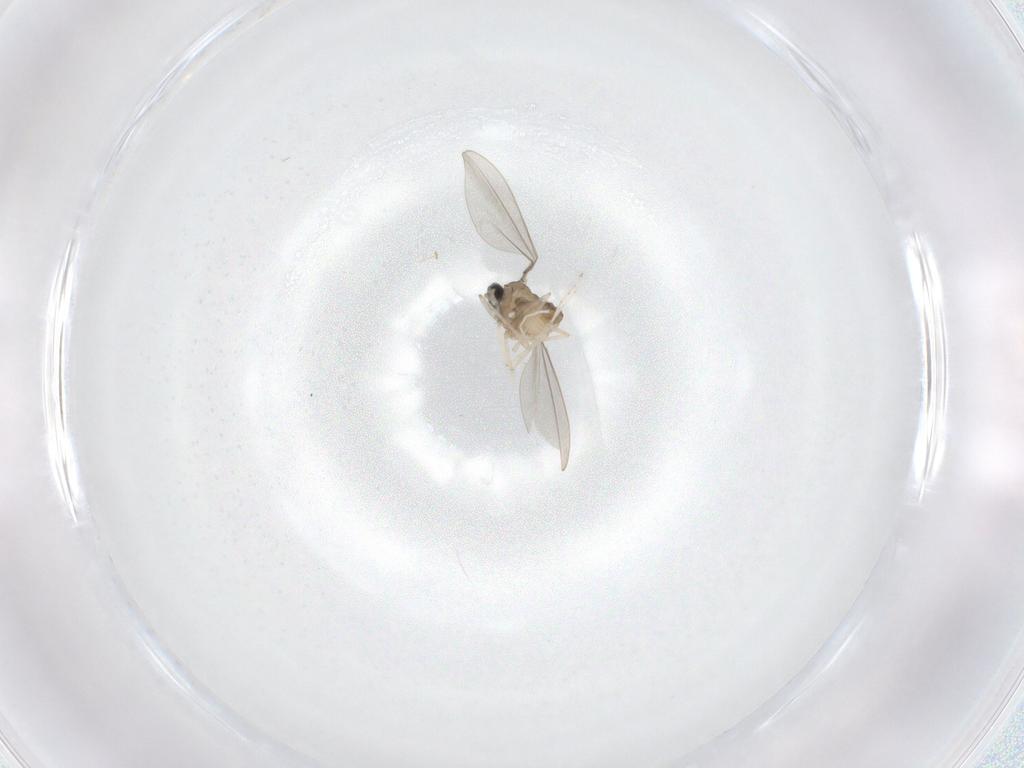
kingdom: Animalia
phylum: Arthropoda
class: Insecta
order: Diptera
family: Cecidomyiidae
